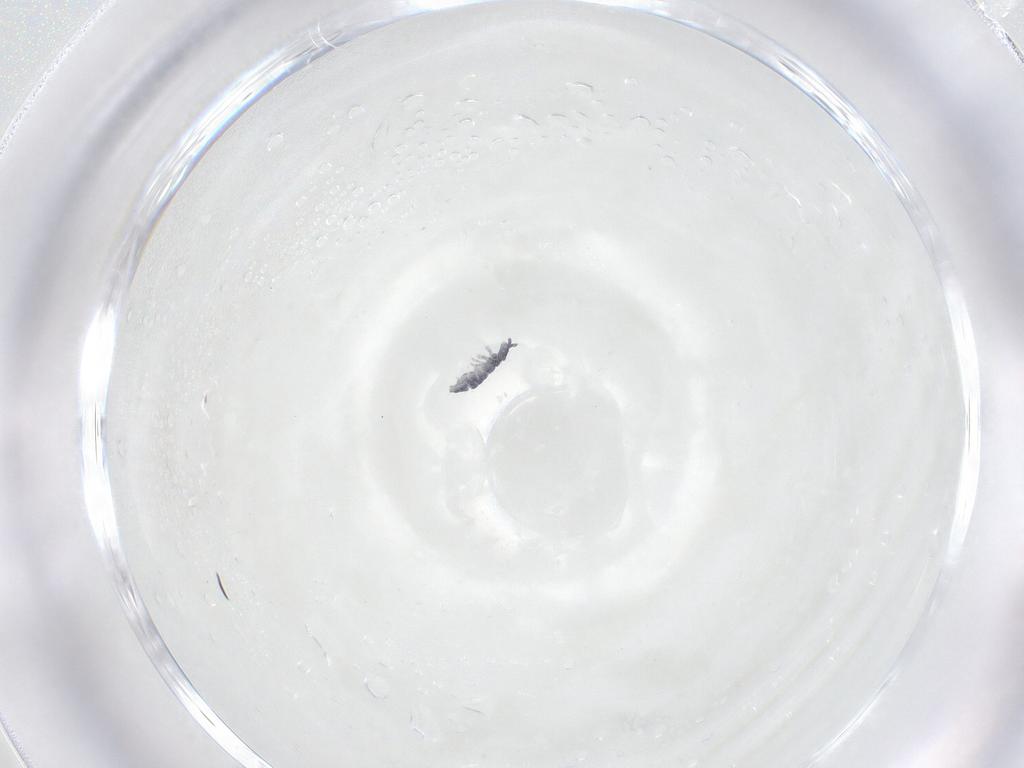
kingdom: Animalia
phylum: Arthropoda
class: Collembola
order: Poduromorpha
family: Hypogastruridae
